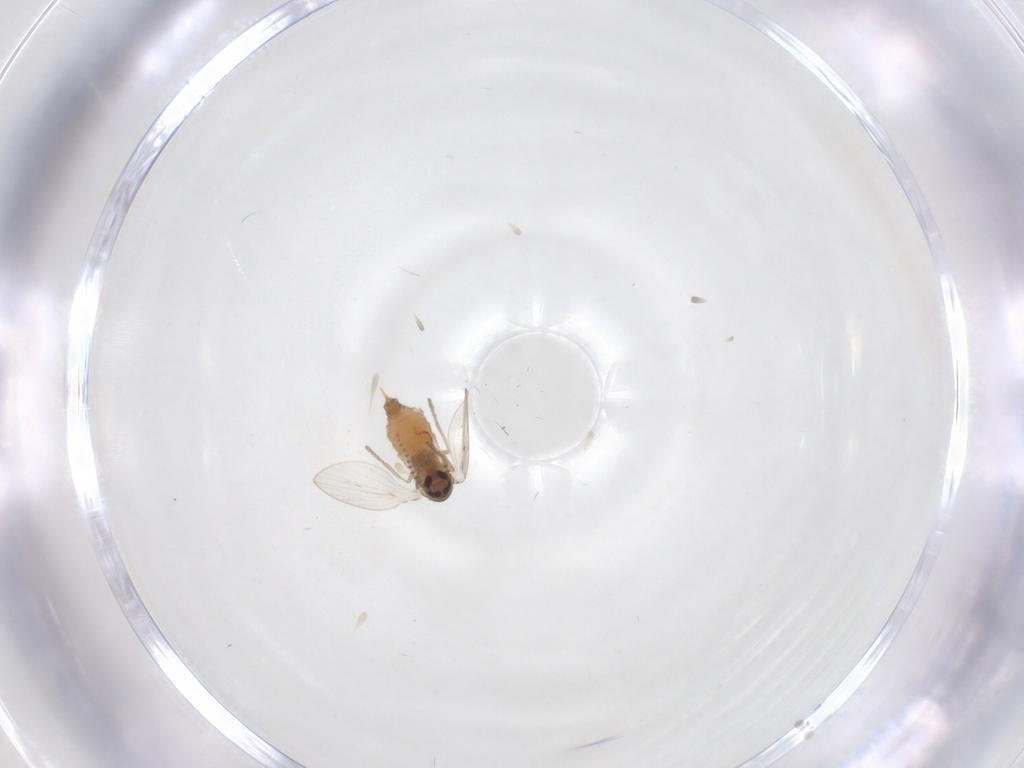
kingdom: Animalia
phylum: Arthropoda
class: Insecta
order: Diptera
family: Psychodidae
